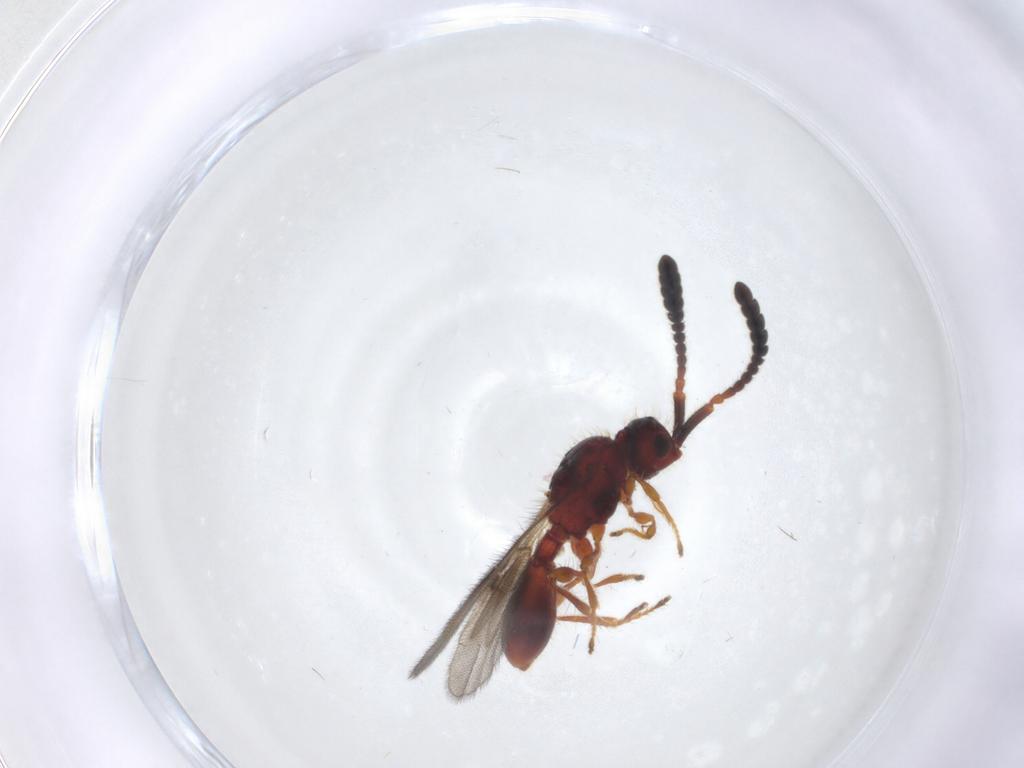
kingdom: Animalia
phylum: Arthropoda
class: Insecta
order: Hymenoptera
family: Diapriidae
